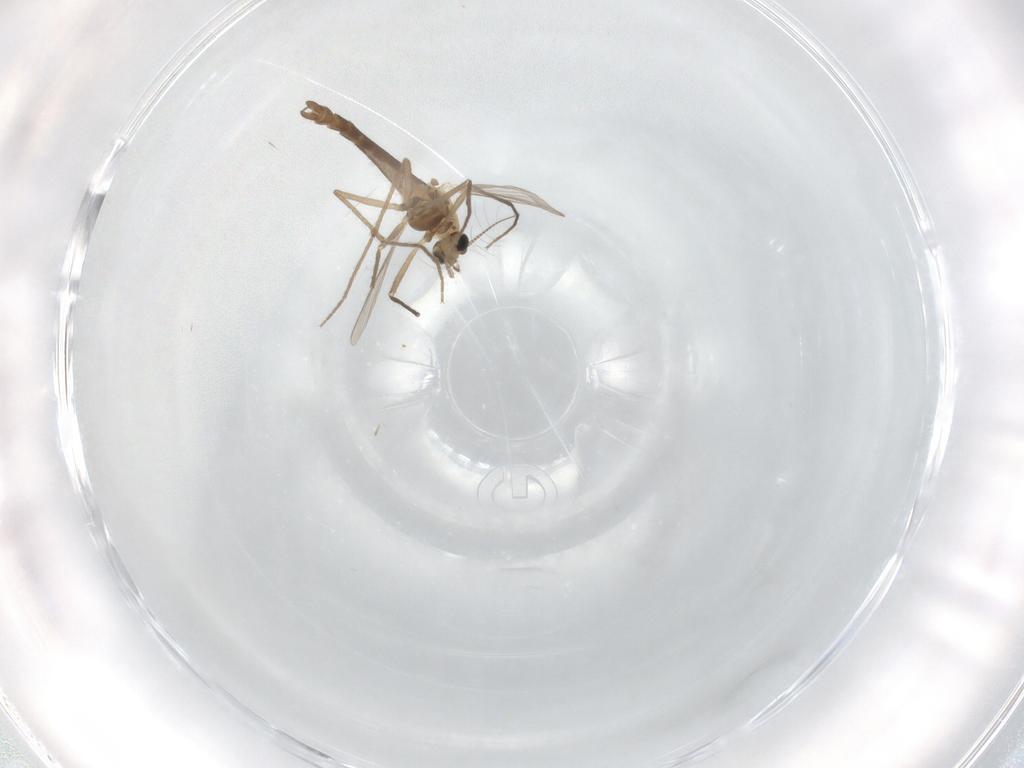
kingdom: Animalia
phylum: Arthropoda
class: Insecta
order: Diptera
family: Chironomidae
